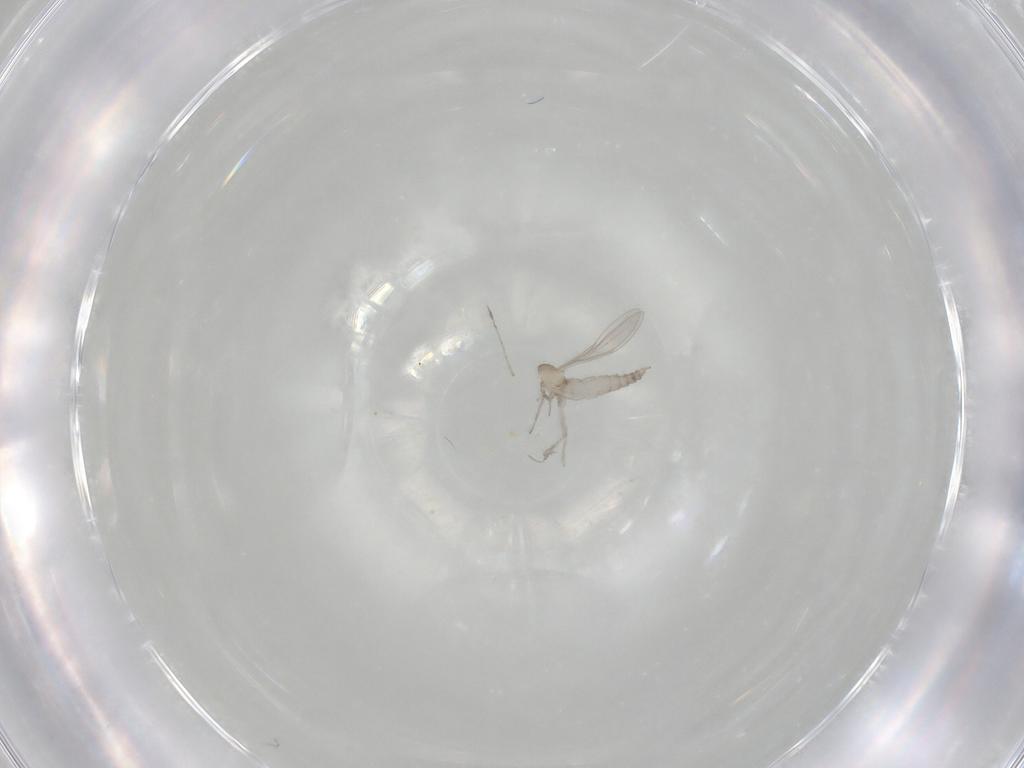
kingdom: Animalia
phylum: Arthropoda
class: Insecta
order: Diptera
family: Cecidomyiidae
